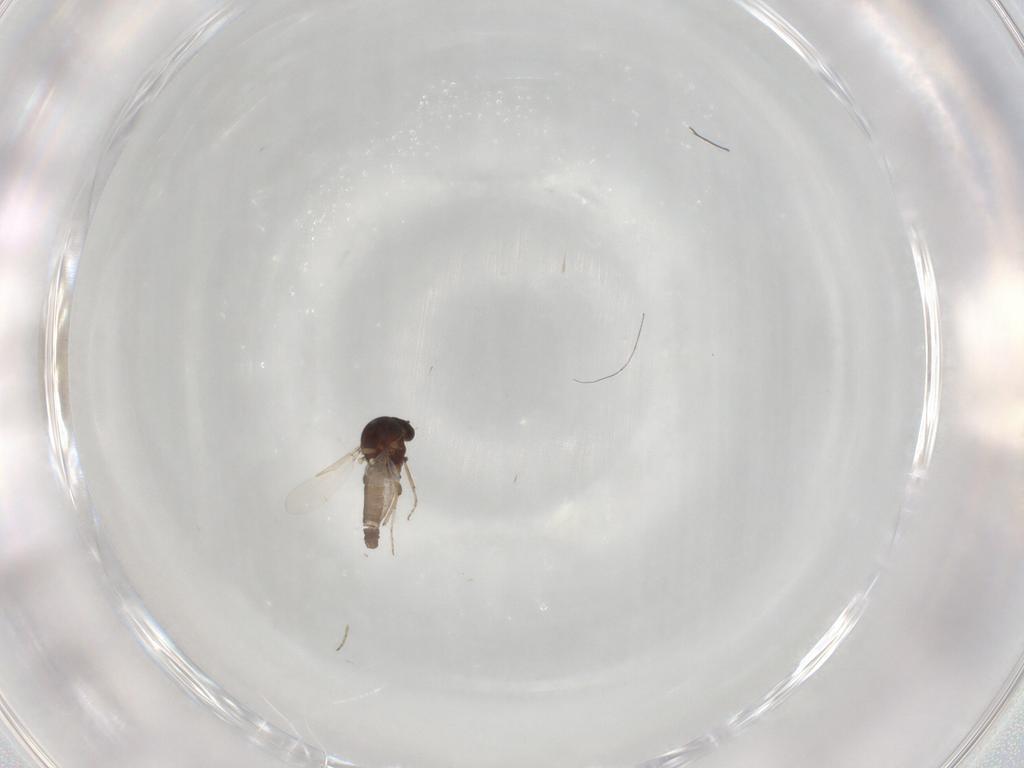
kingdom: Animalia
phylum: Arthropoda
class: Insecta
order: Diptera
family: Ceratopogonidae
